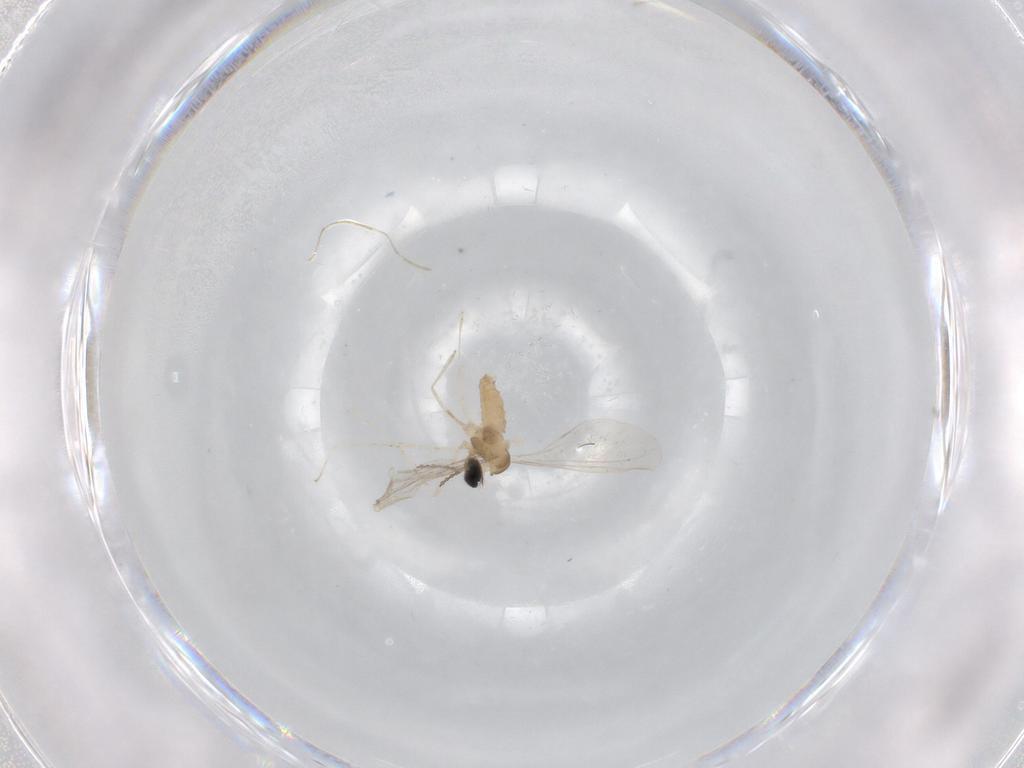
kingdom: Animalia
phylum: Arthropoda
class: Insecta
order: Diptera
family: Cecidomyiidae
